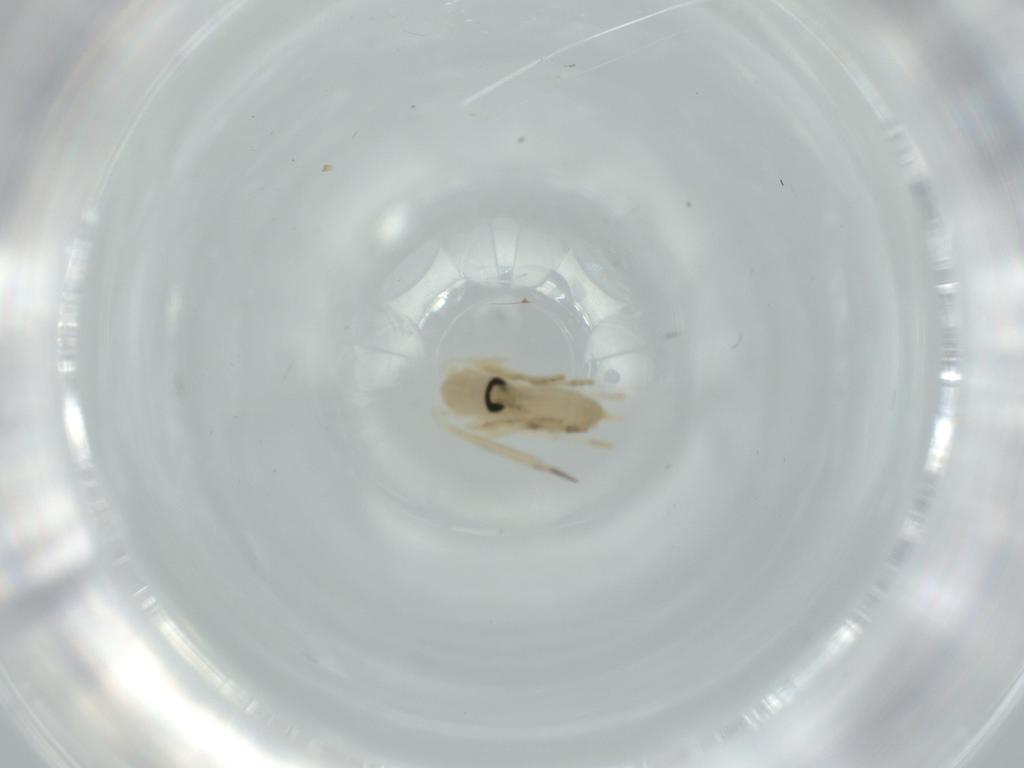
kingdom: Animalia
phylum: Arthropoda
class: Insecta
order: Diptera
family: Psychodidae
